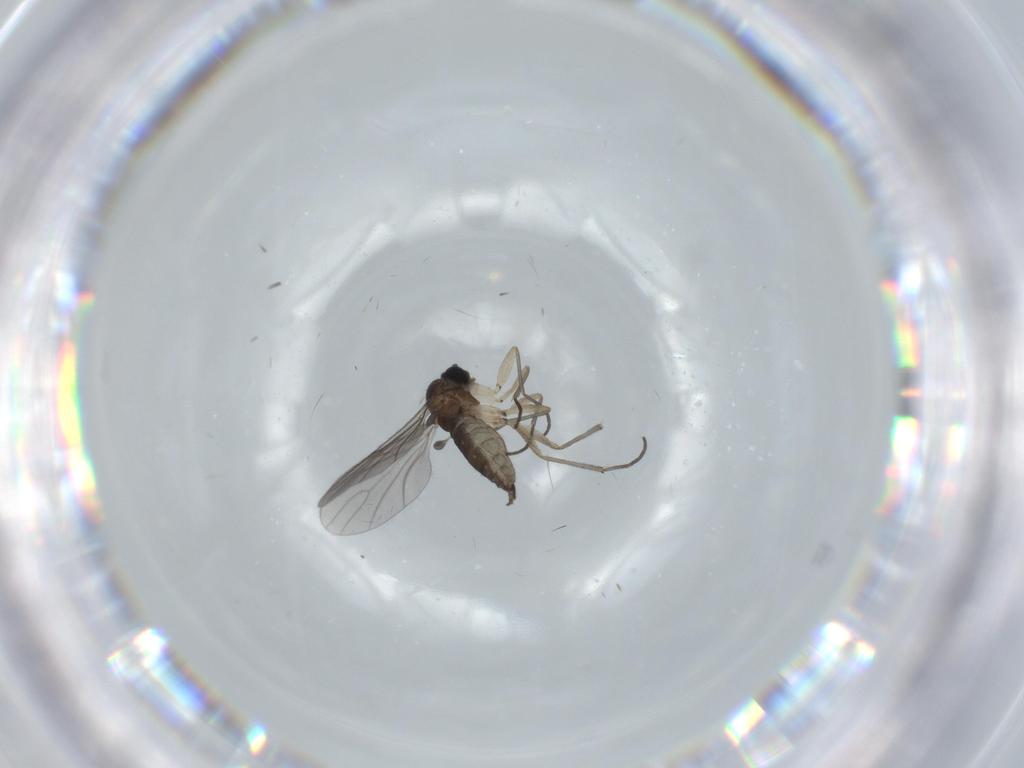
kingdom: Animalia
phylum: Arthropoda
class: Insecta
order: Diptera
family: Sciaridae
